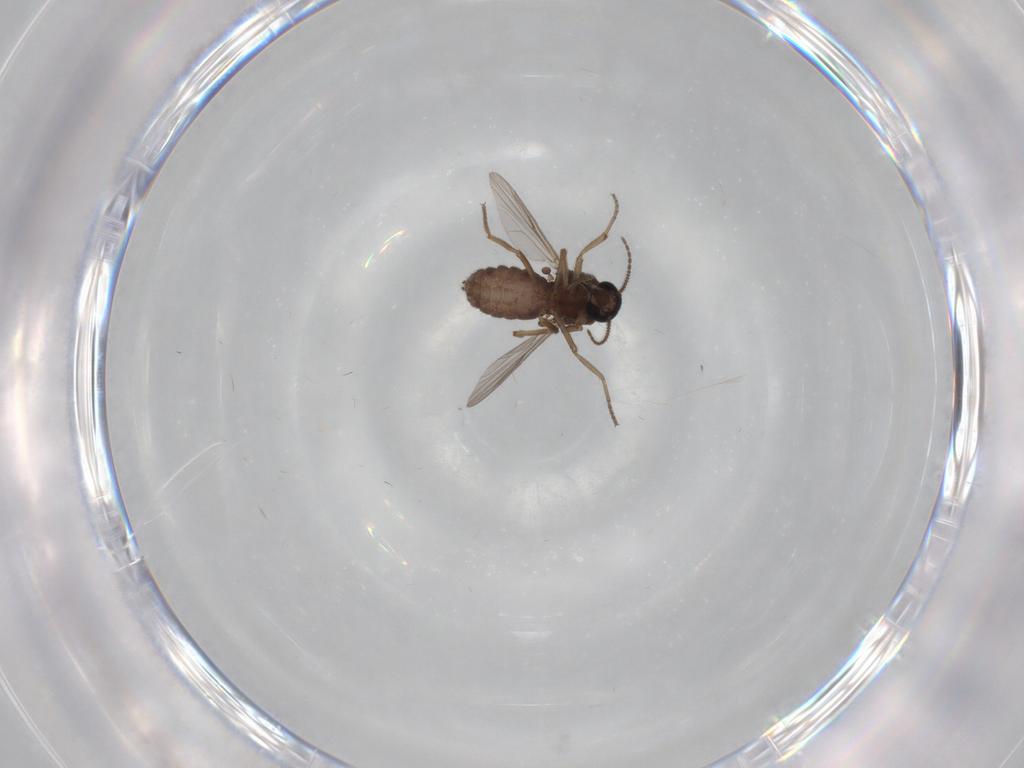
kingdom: Animalia
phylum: Arthropoda
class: Insecta
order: Diptera
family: Ceratopogonidae
